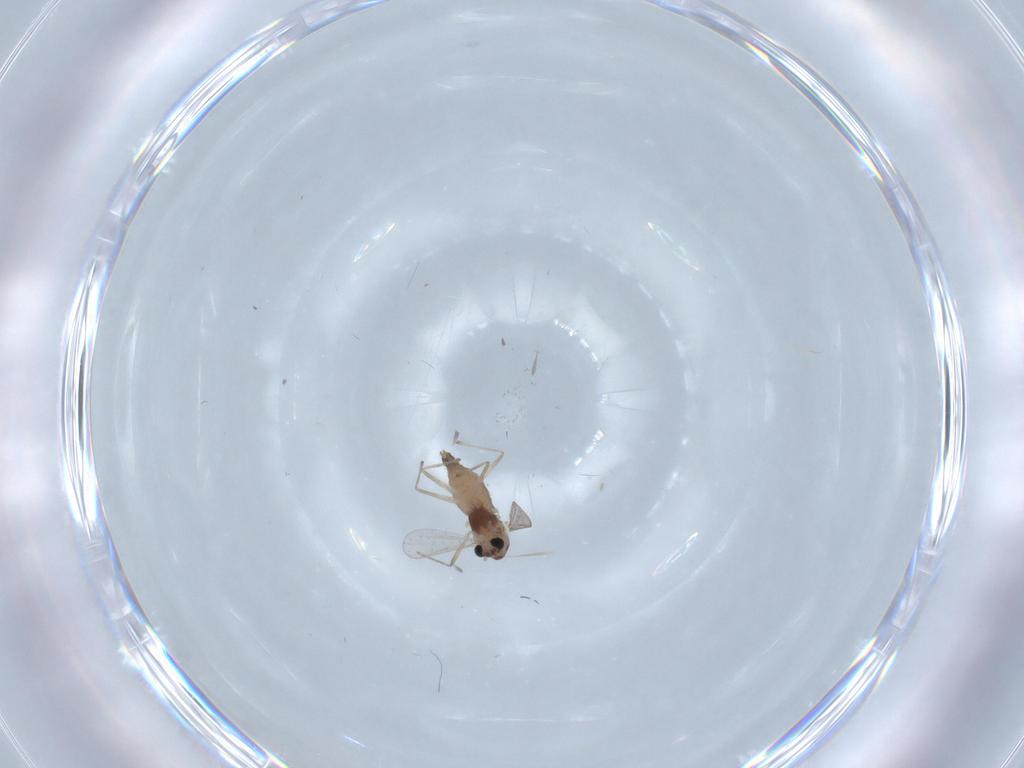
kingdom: Animalia
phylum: Arthropoda
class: Insecta
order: Diptera
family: Chironomidae
